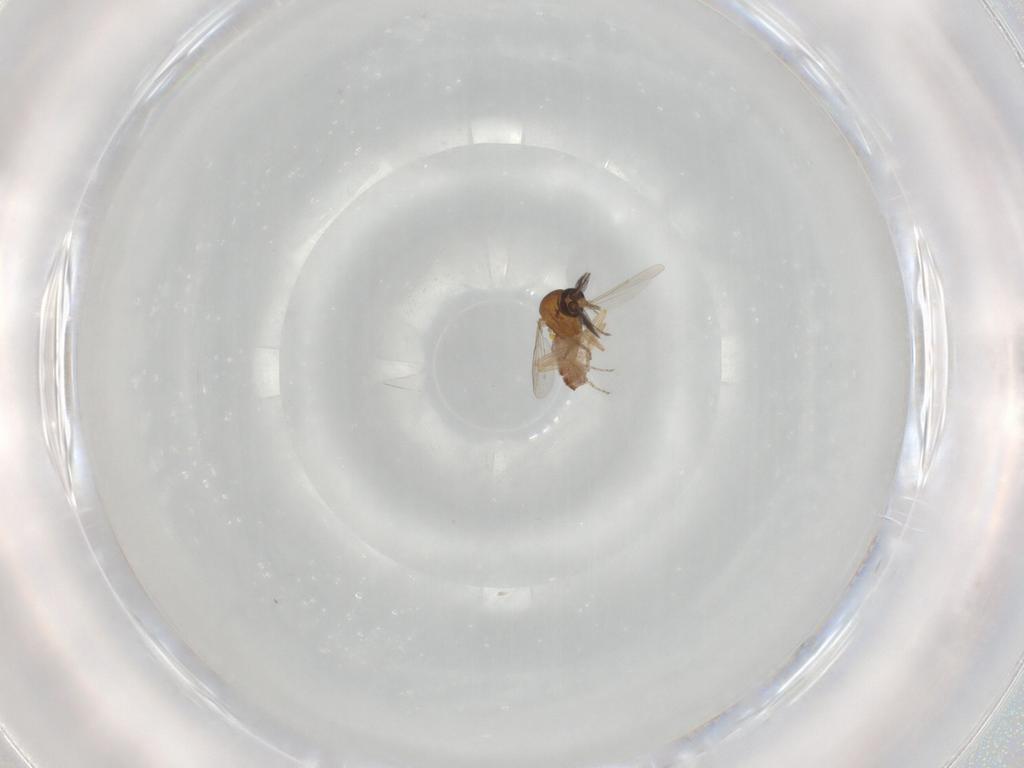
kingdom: Animalia
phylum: Arthropoda
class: Insecta
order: Diptera
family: Ceratopogonidae
